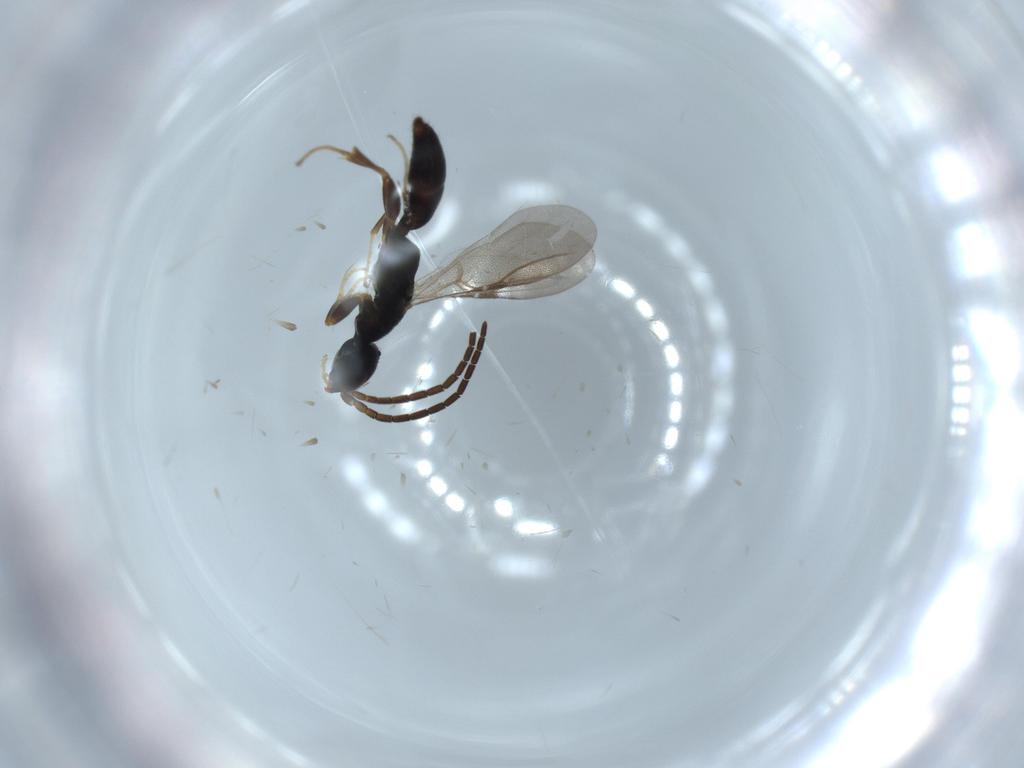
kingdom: Animalia
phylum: Arthropoda
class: Insecta
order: Hymenoptera
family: Bethylidae
